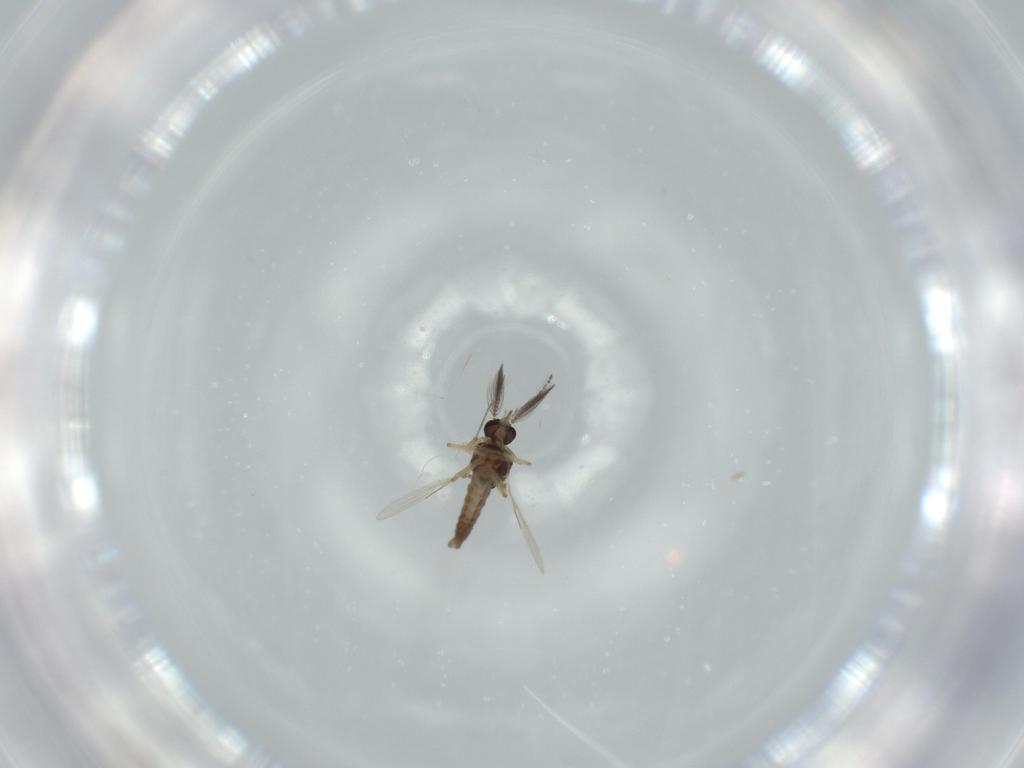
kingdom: Animalia
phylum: Arthropoda
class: Insecta
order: Diptera
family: Ceratopogonidae
